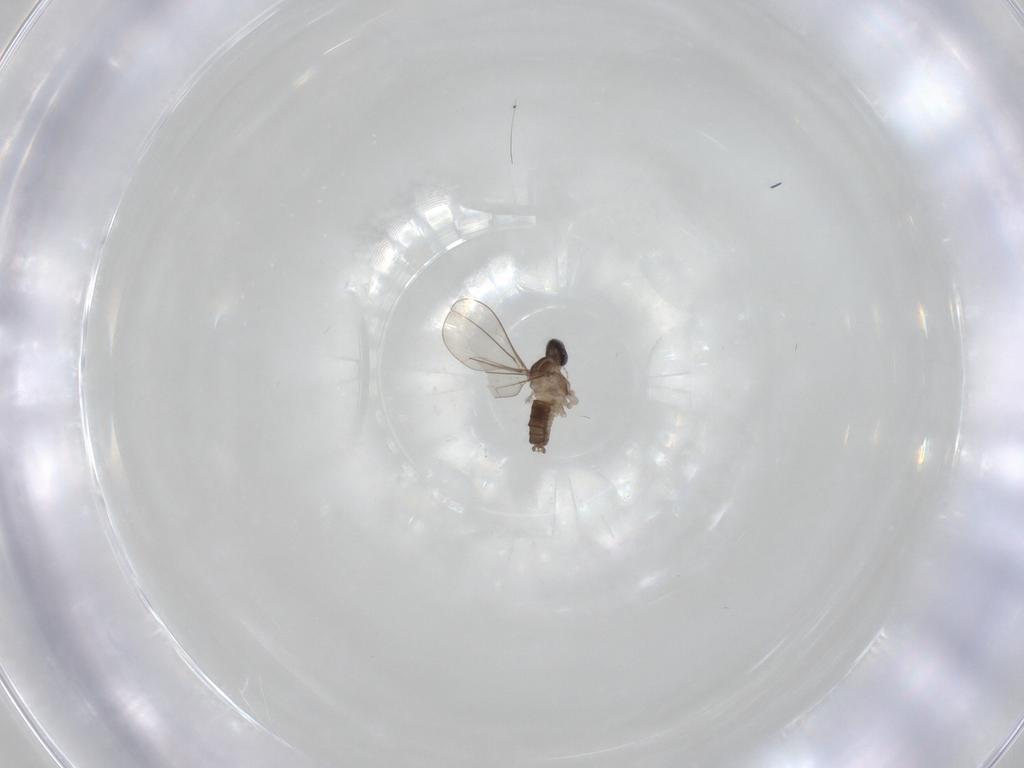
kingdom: Animalia
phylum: Arthropoda
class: Insecta
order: Diptera
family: Cecidomyiidae
